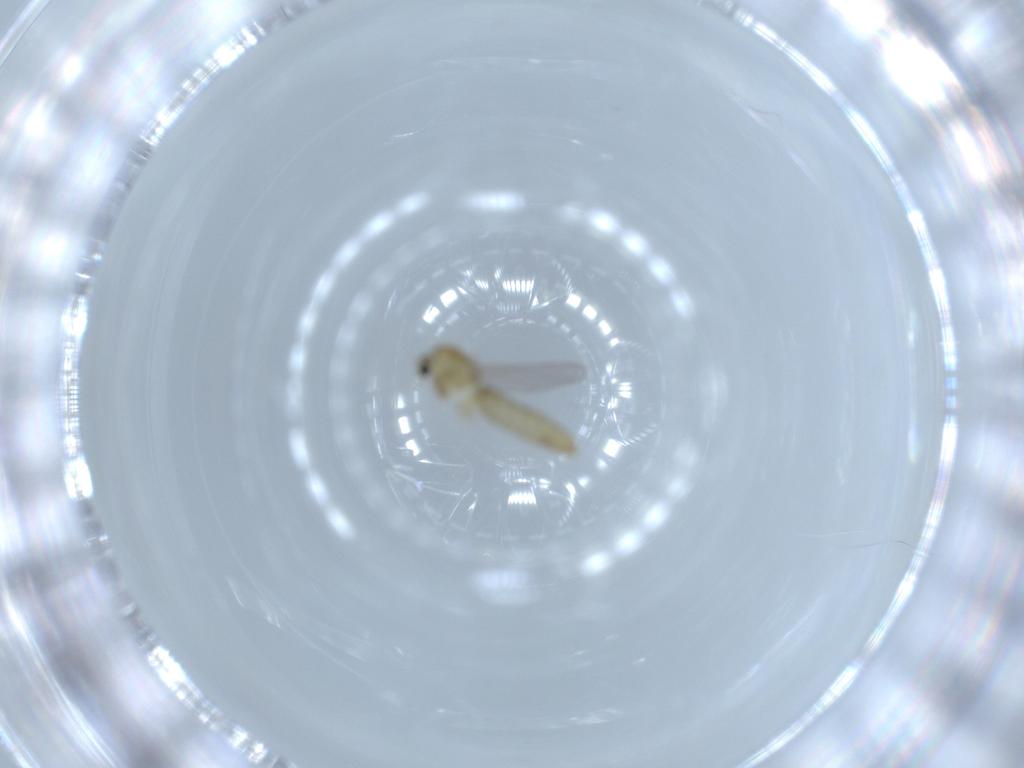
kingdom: Animalia
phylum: Arthropoda
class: Insecta
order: Diptera
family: Chironomidae
